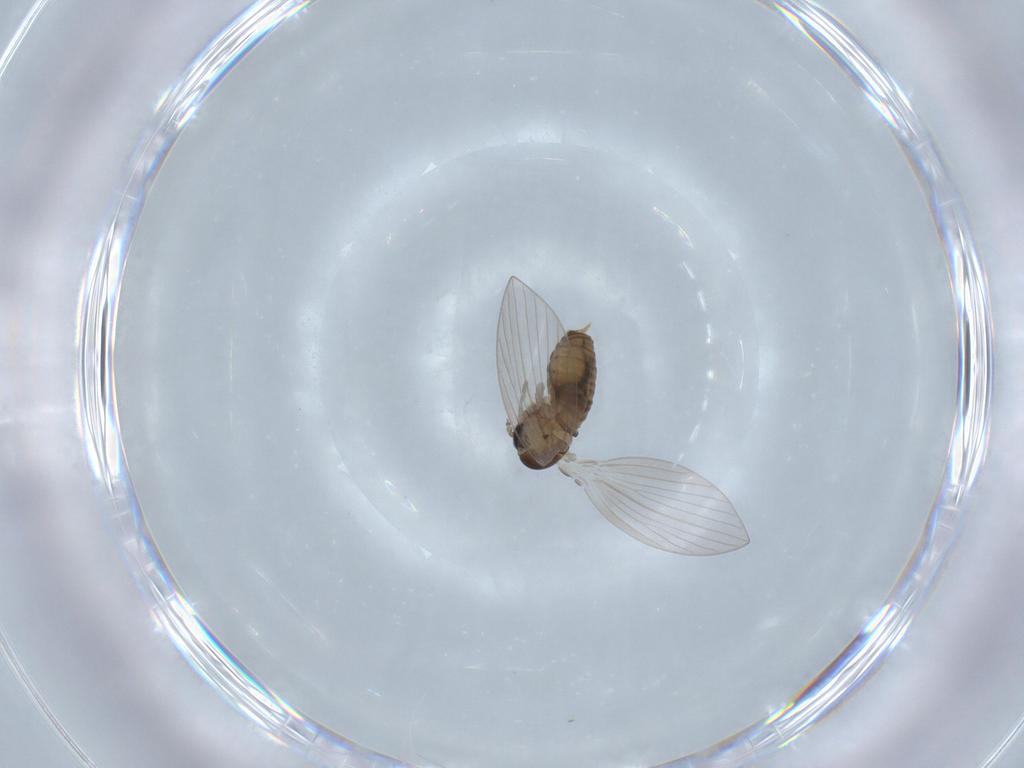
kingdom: Animalia
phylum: Arthropoda
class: Insecta
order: Diptera
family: Psychodidae
